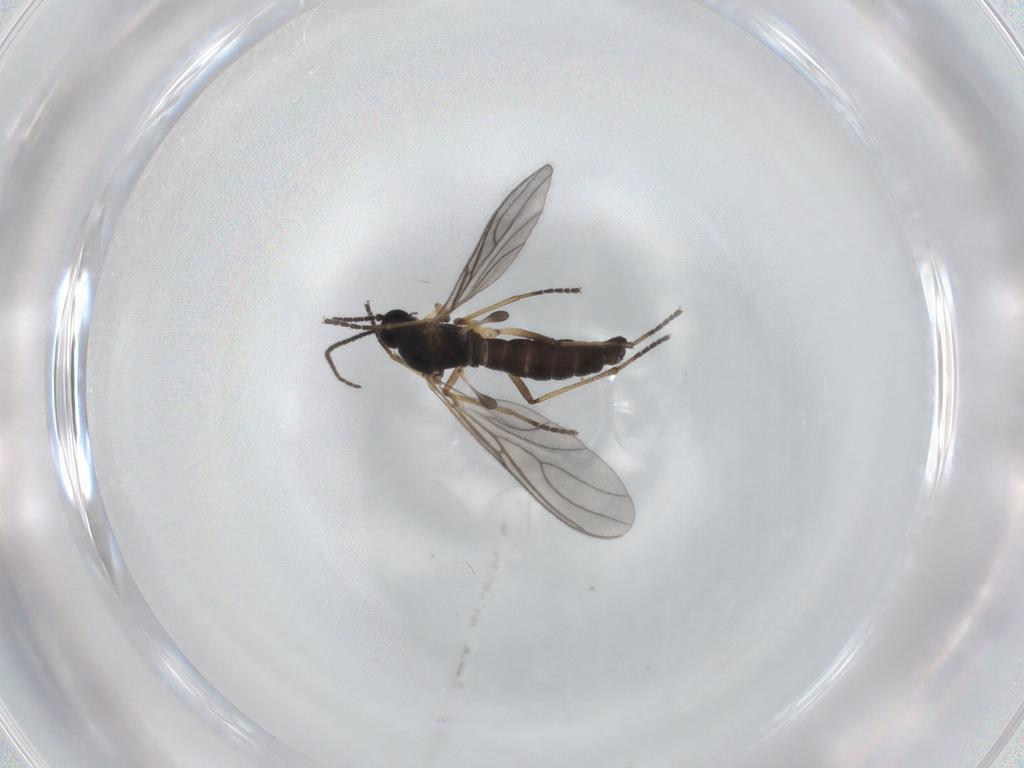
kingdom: Animalia
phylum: Arthropoda
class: Insecta
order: Diptera
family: Sciaridae
